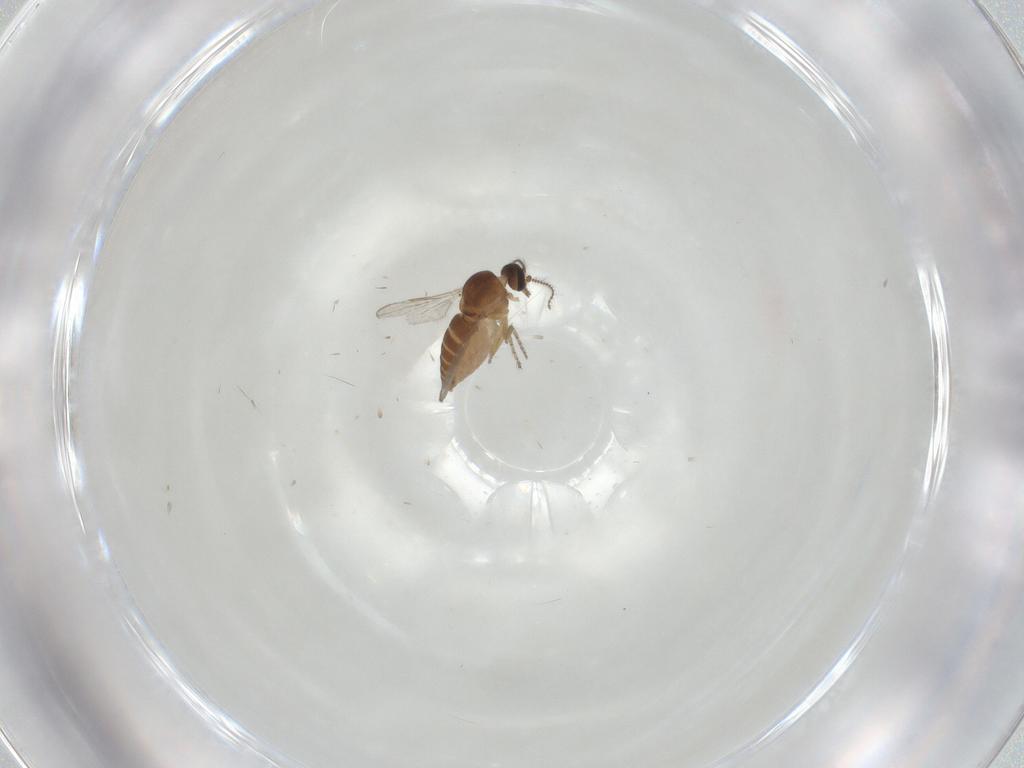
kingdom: Animalia
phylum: Arthropoda
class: Insecta
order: Diptera
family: Ceratopogonidae
